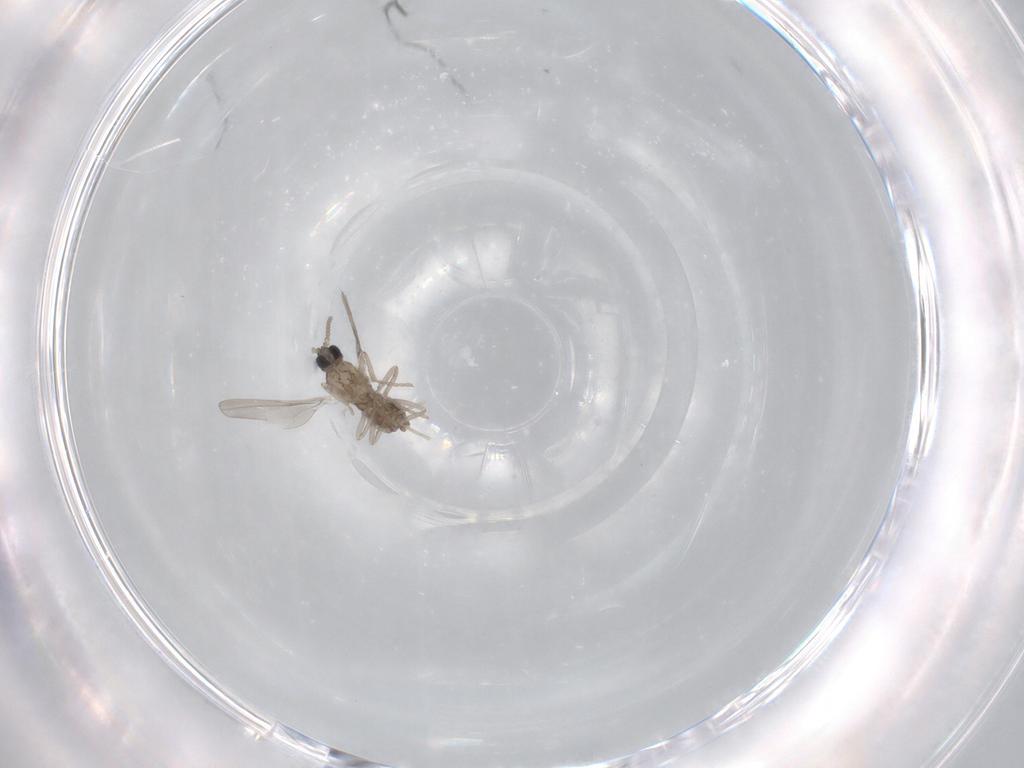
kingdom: Animalia
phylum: Arthropoda
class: Insecta
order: Diptera
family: Cecidomyiidae
